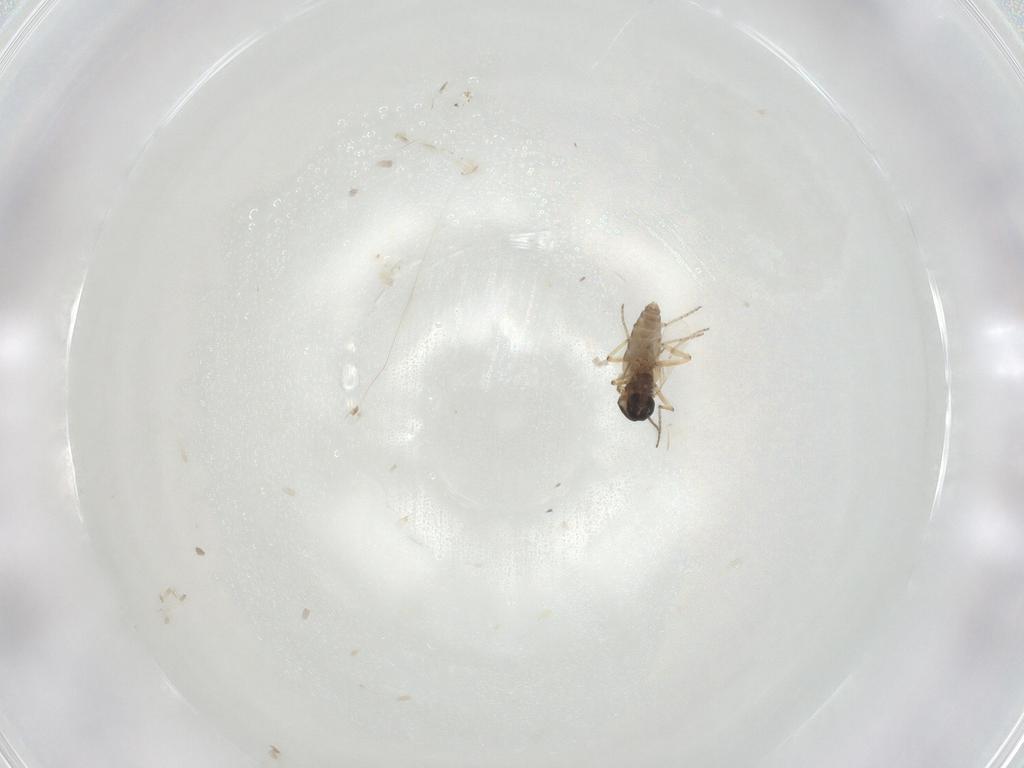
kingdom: Animalia
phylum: Arthropoda
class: Insecta
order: Diptera
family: Ceratopogonidae
